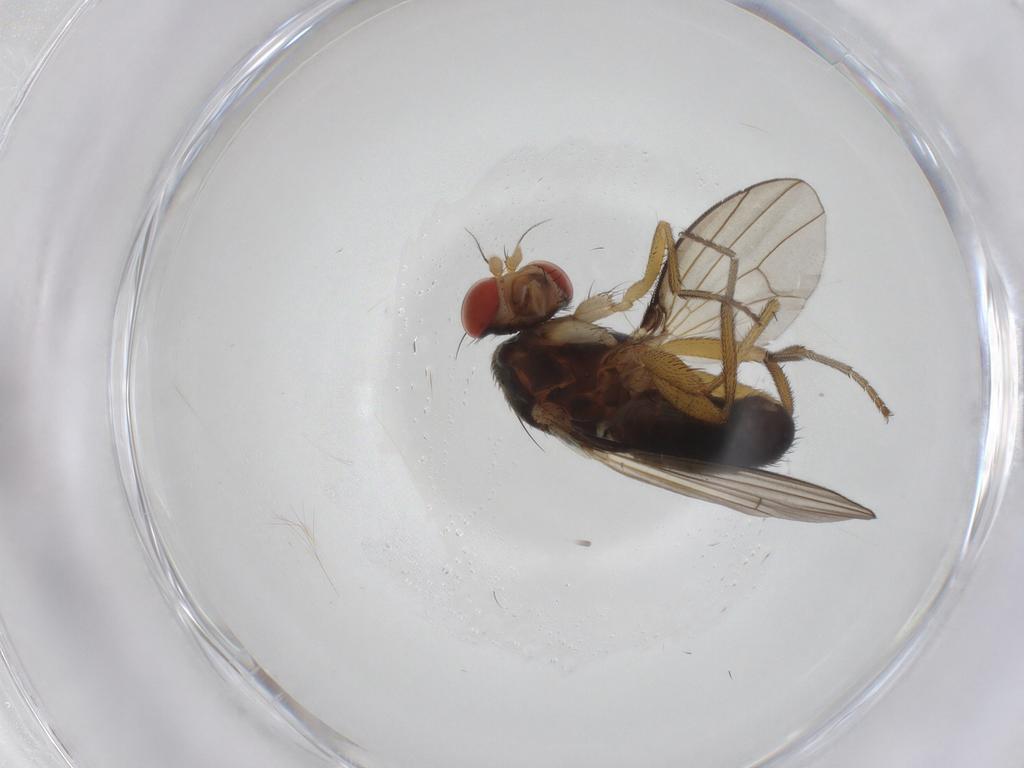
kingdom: Animalia
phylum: Arthropoda
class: Insecta
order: Diptera
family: Diastatidae
